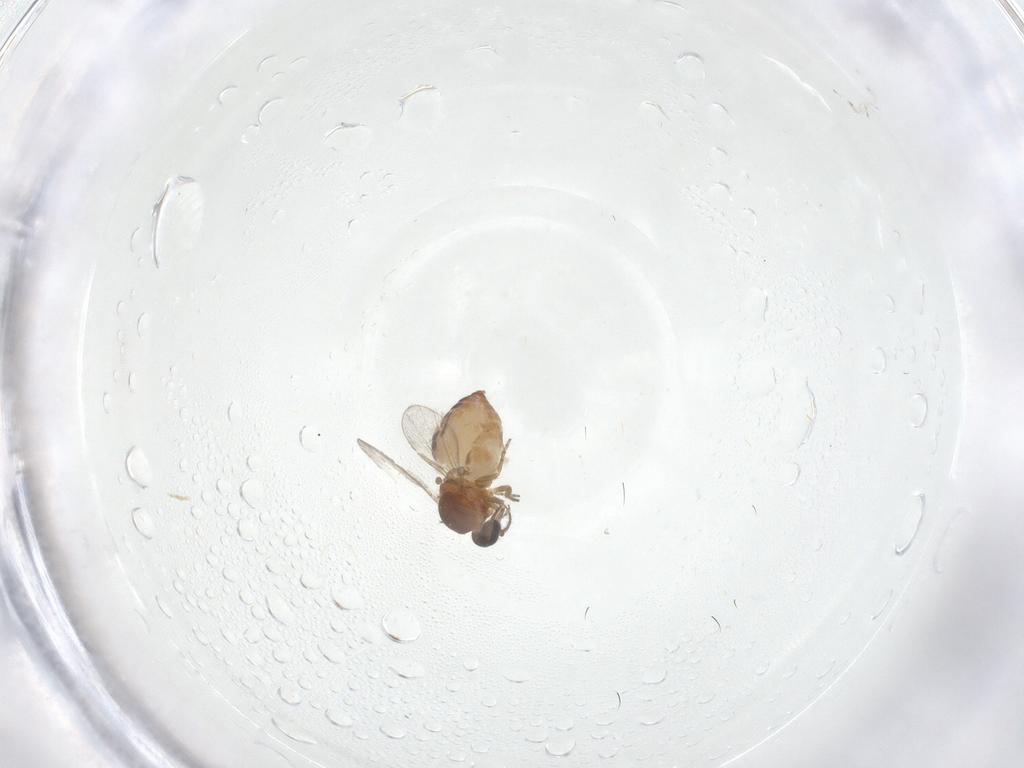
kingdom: Animalia
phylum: Arthropoda
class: Insecta
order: Diptera
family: Ceratopogonidae
